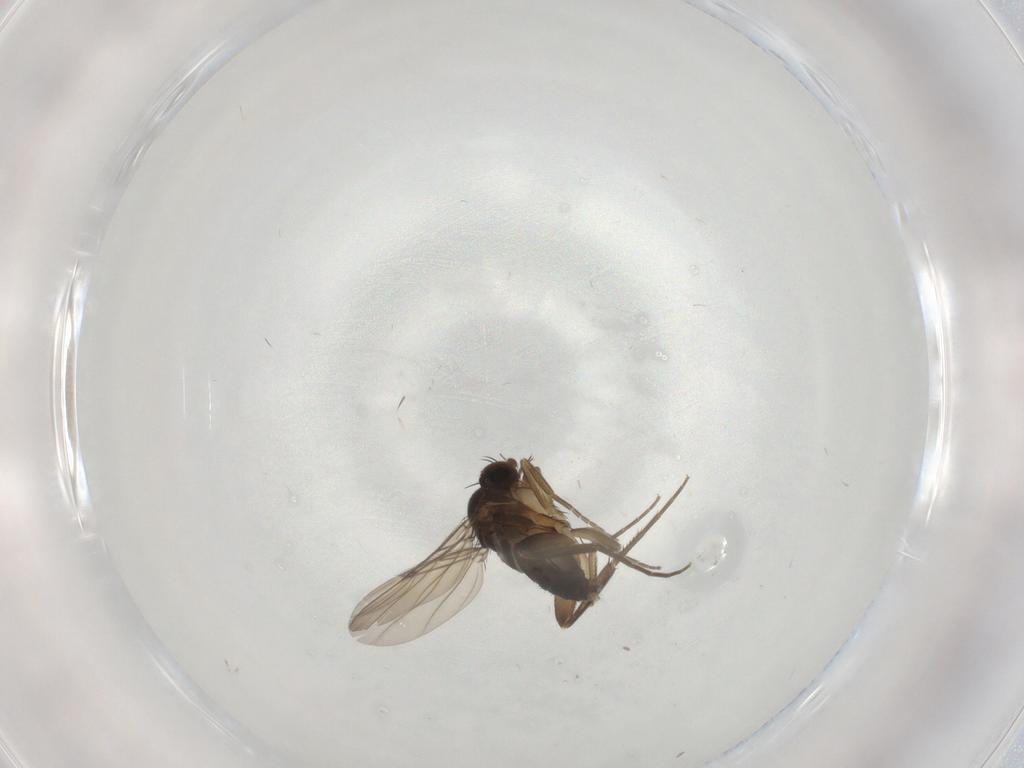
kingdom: Animalia
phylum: Arthropoda
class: Insecta
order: Diptera
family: Phoridae
